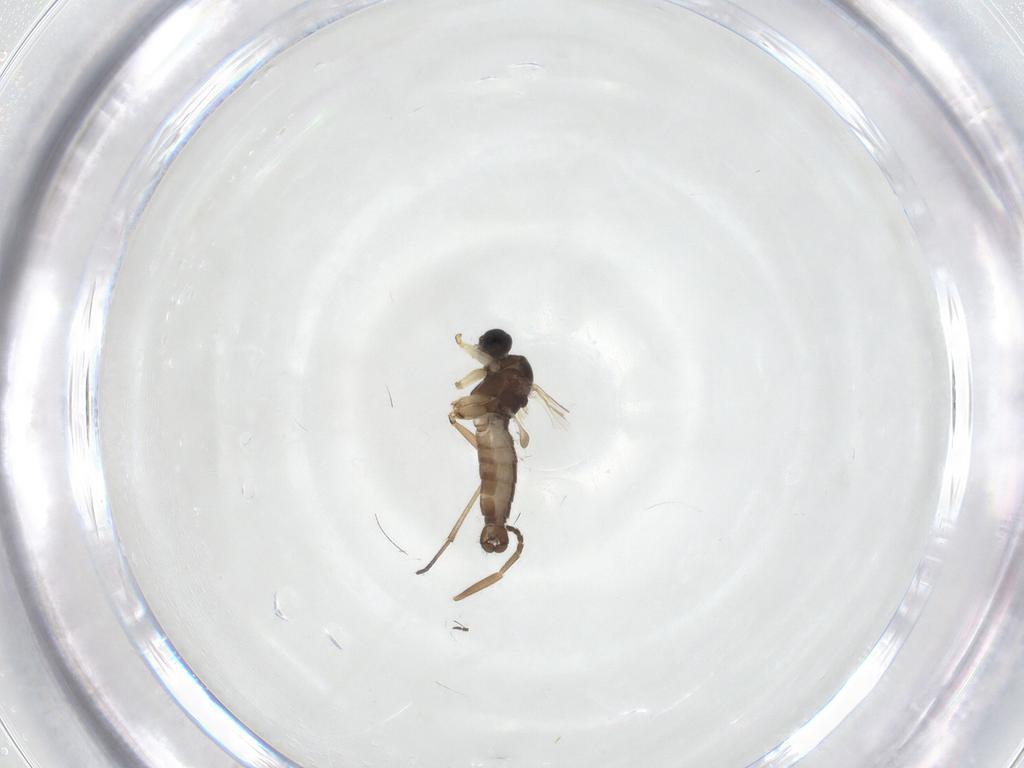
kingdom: Animalia
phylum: Arthropoda
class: Insecta
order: Diptera
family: Sciaridae
